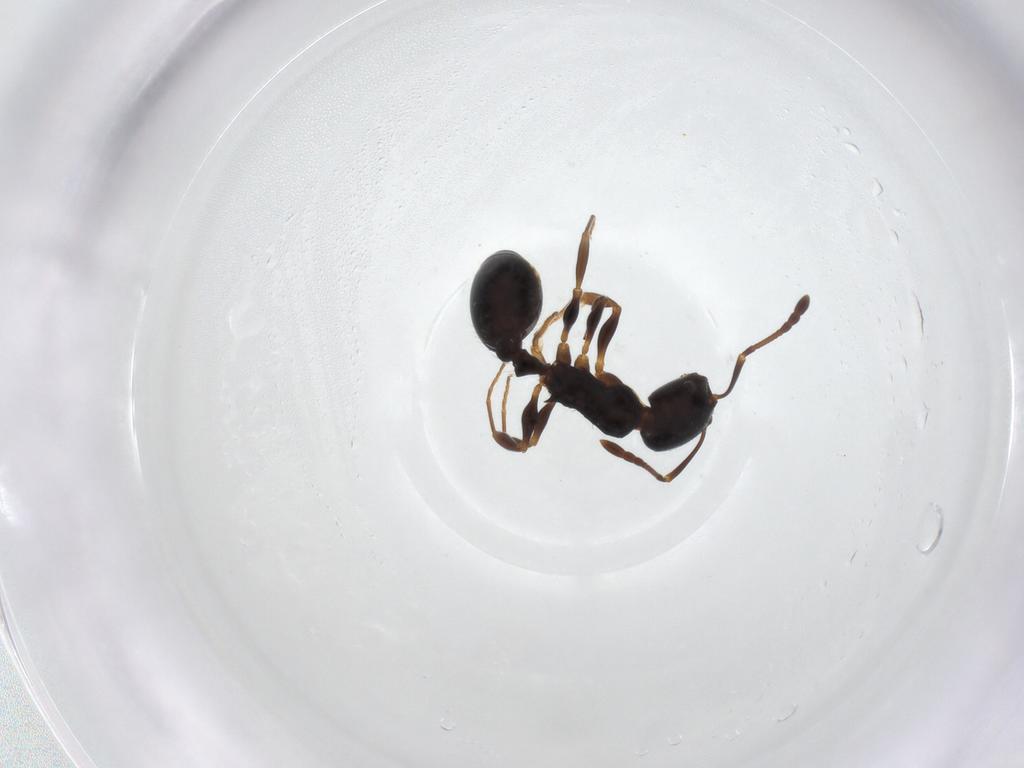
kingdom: Animalia
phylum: Arthropoda
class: Insecta
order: Hymenoptera
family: Formicidae
